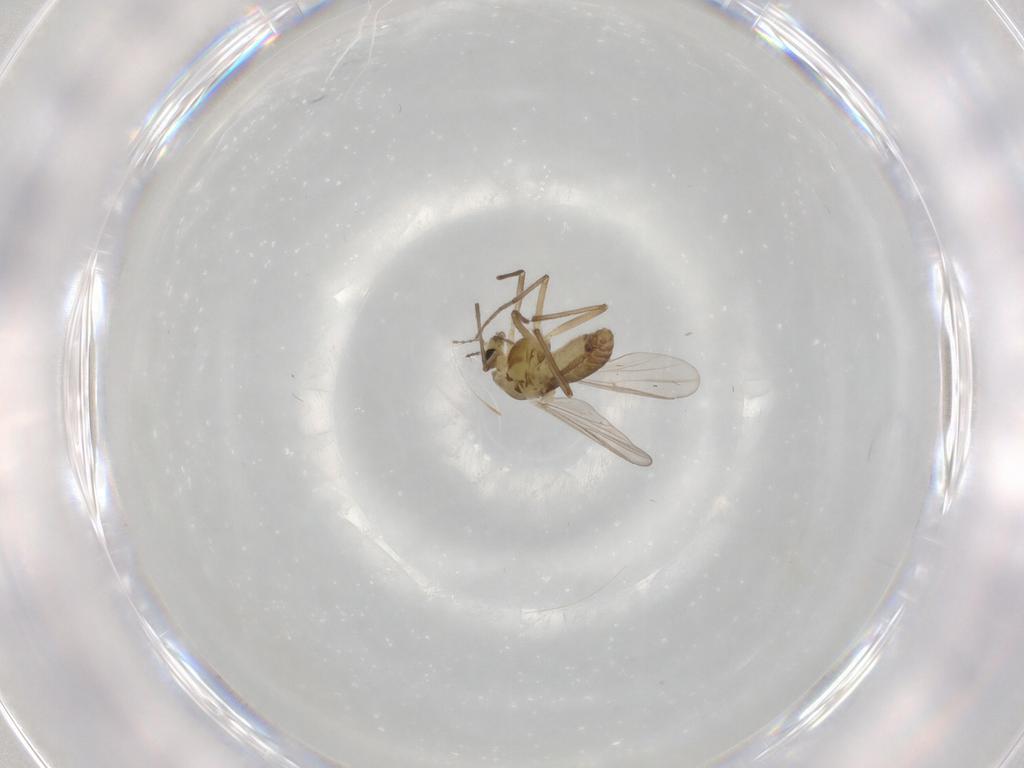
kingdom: Animalia
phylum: Arthropoda
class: Insecta
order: Diptera
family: Chironomidae
